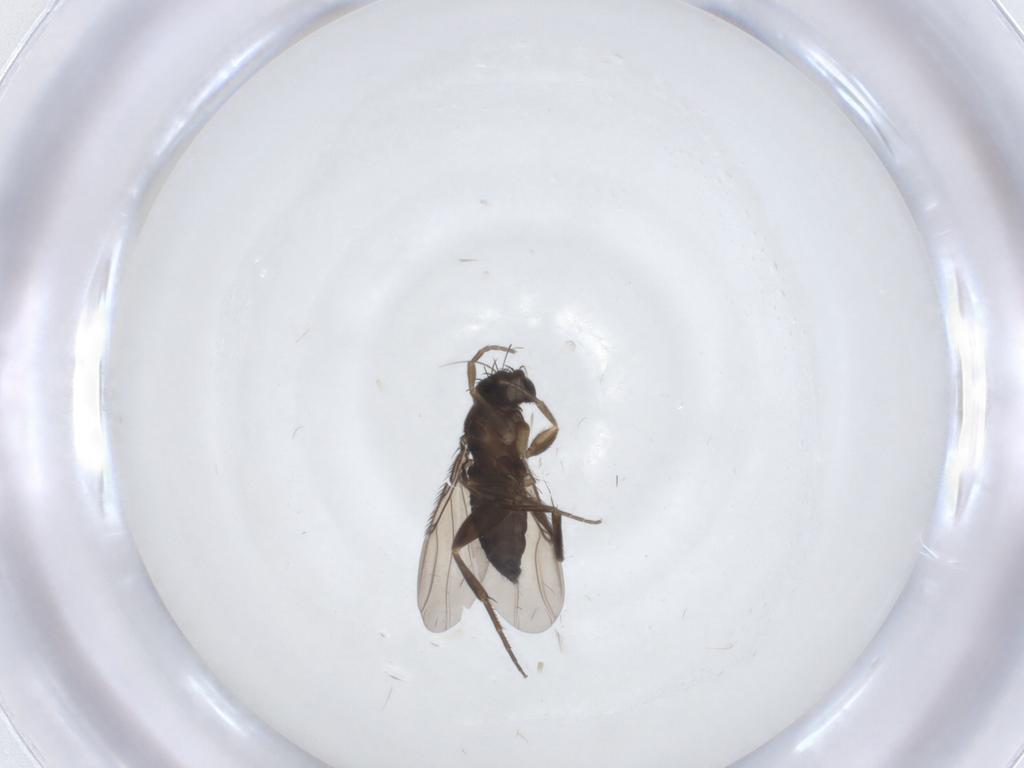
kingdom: Animalia
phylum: Arthropoda
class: Insecta
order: Diptera
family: Phoridae
